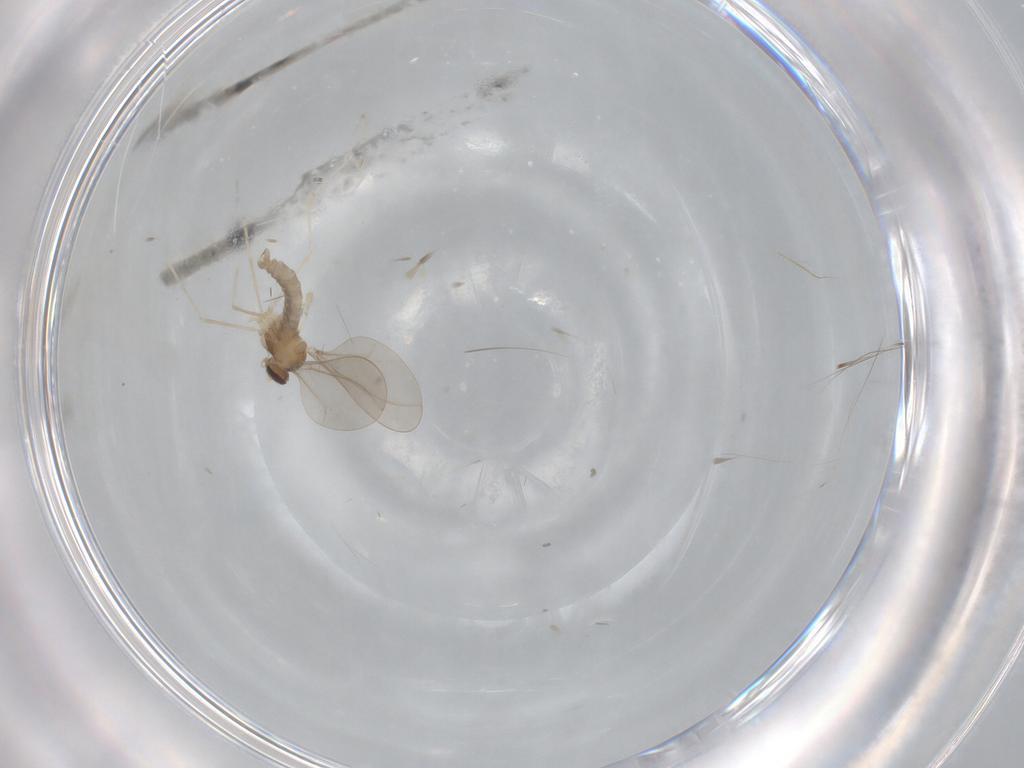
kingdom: Animalia
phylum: Arthropoda
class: Insecta
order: Diptera
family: Cecidomyiidae
